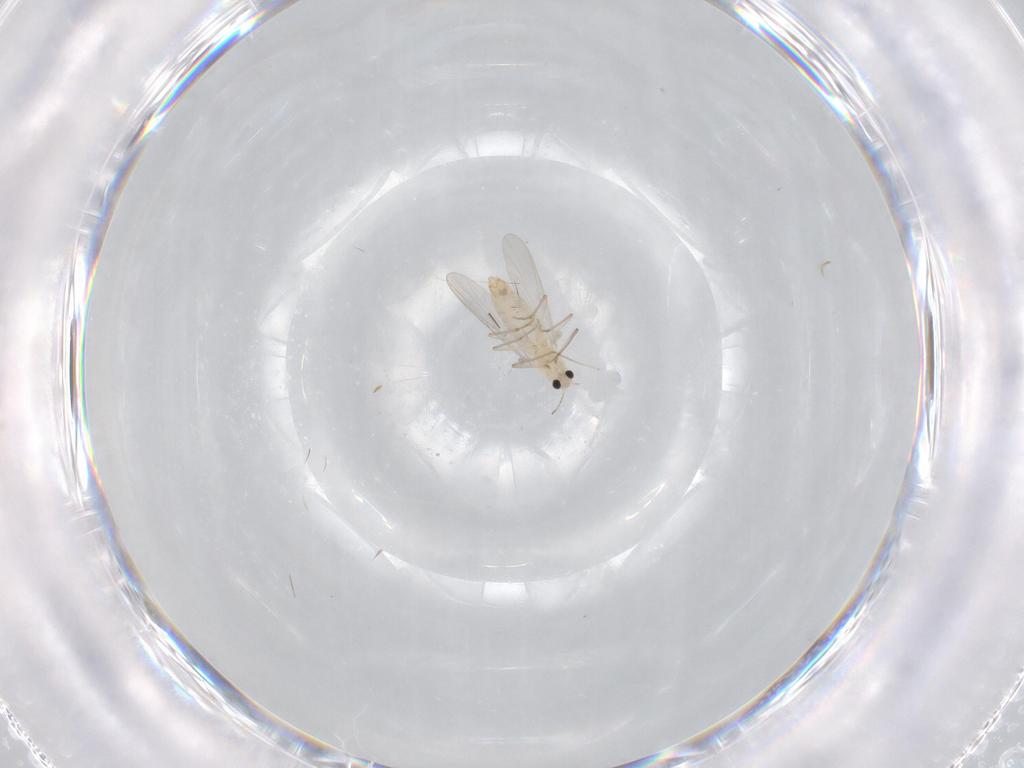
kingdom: Animalia
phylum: Arthropoda
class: Insecta
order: Diptera
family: Chironomidae
